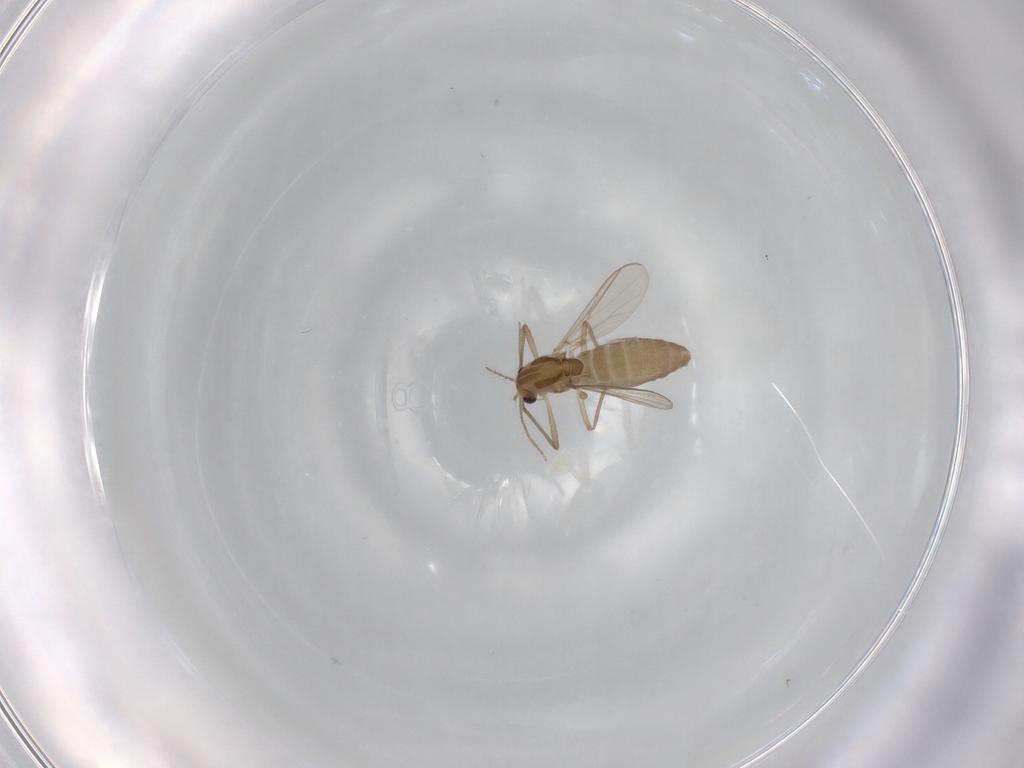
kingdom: Animalia
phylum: Arthropoda
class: Insecta
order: Diptera
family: Chironomidae
